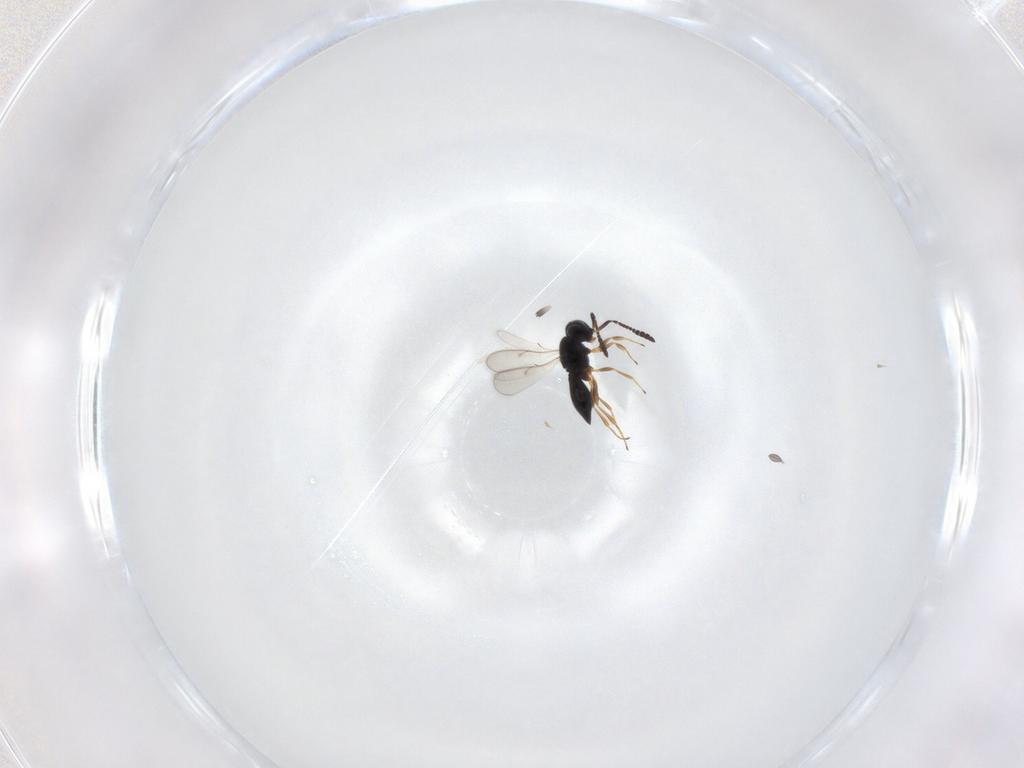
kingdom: Animalia
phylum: Arthropoda
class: Insecta
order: Hymenoptera
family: Scelionidae
